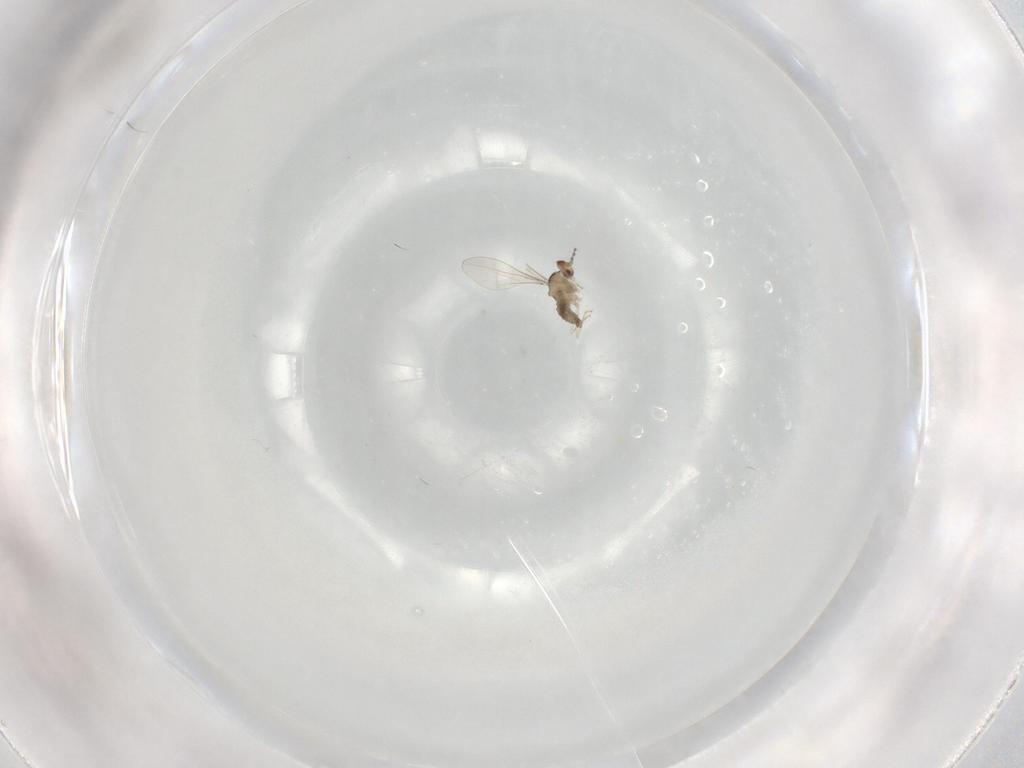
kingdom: Animalia
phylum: Arthropoda
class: Insecta
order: Diptera
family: Cecidomyiidae
